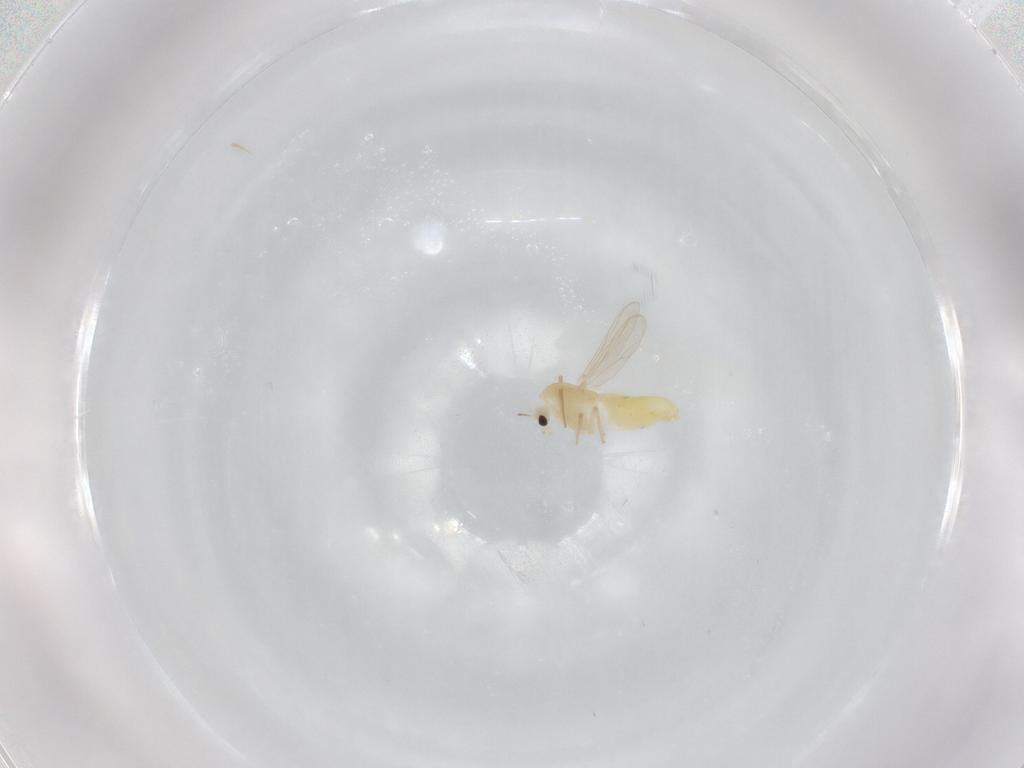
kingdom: Animalia
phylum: Arthropoda
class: Insecta
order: Diptera
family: Chironomidae
